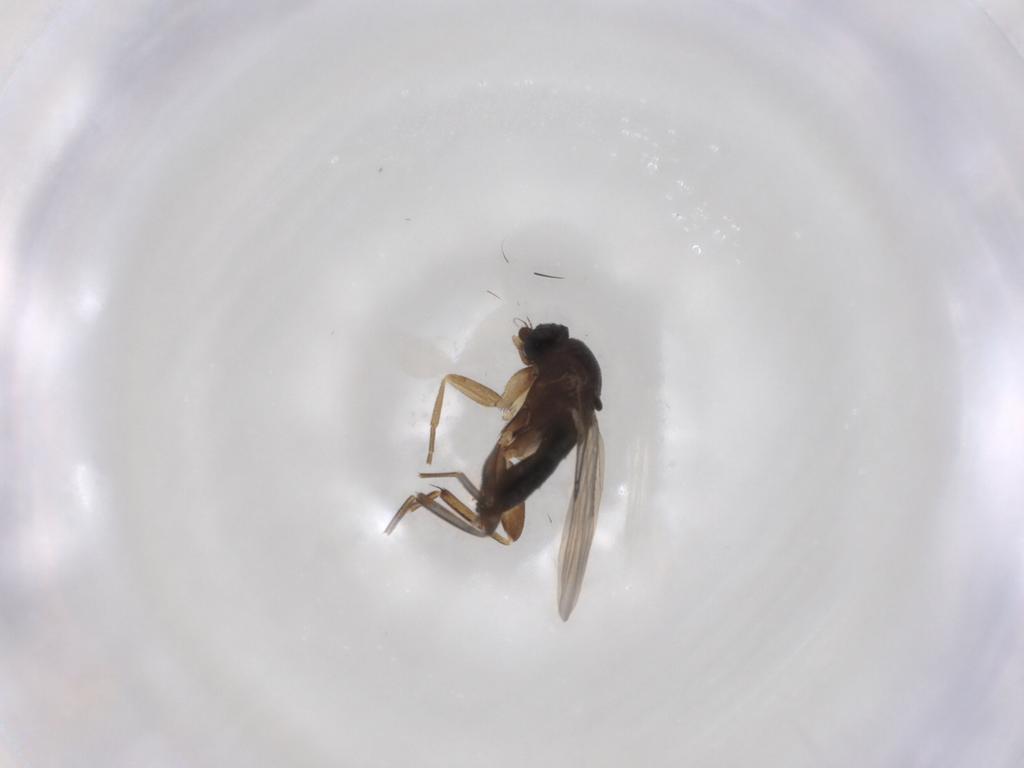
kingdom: Animalia
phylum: Arthropoda
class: Insecta
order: Diptera
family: Phoridae
